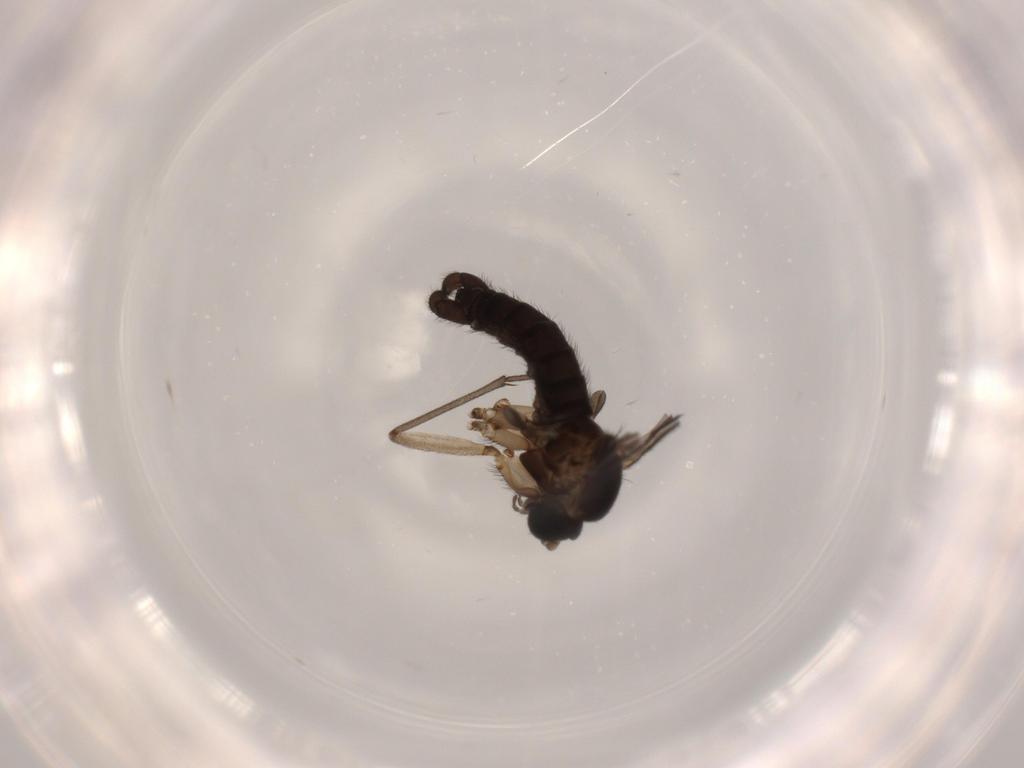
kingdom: Animalia
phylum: Arthropoda
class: Insecta
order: Diptera
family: Sciaridae
